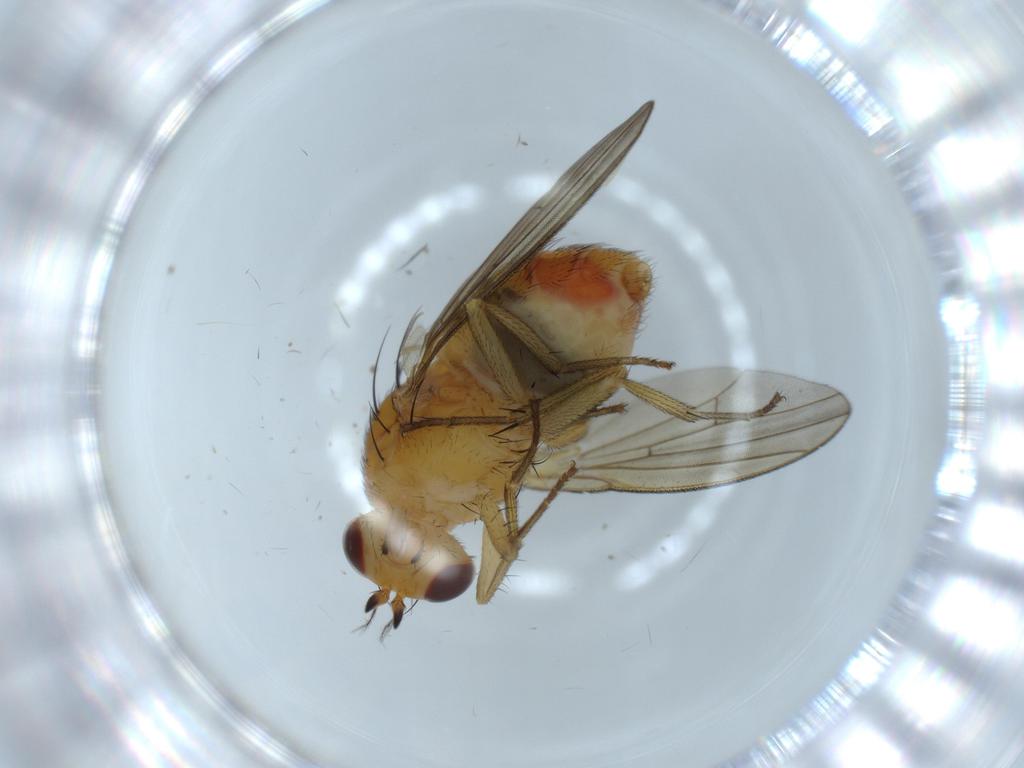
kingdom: Animalia
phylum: Arthropoda
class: Insecta
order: Diptera
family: Lauxaniidae
